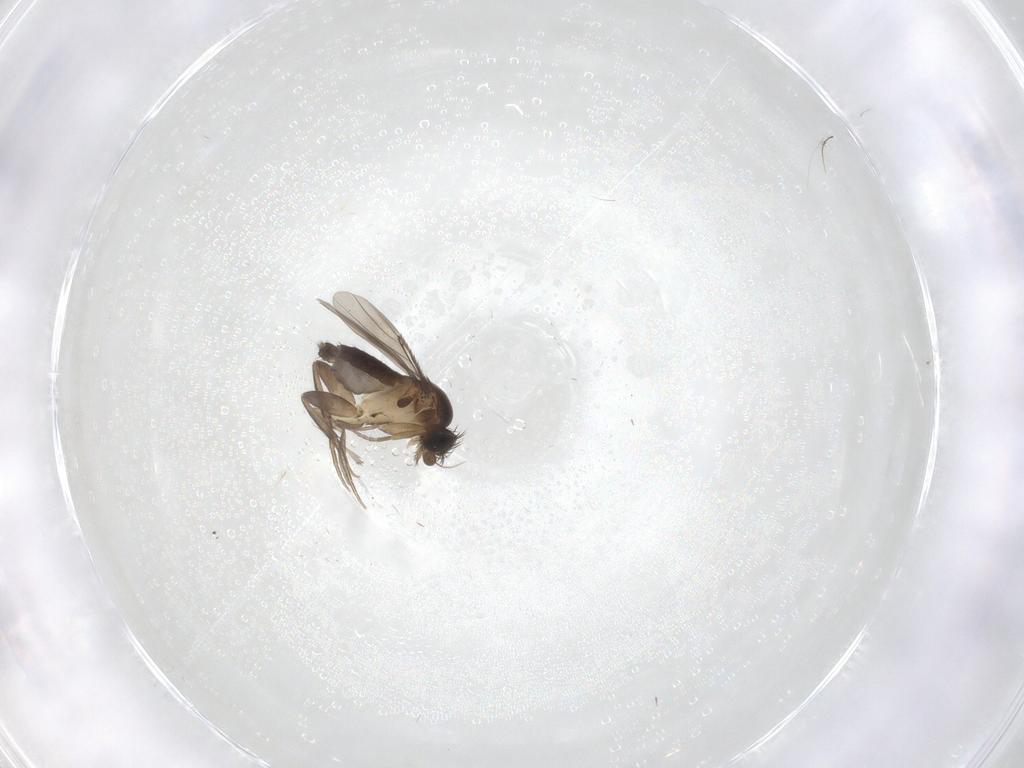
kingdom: Animalia
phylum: Arthropoda
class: Insecta
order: Diptera
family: Phoridae
